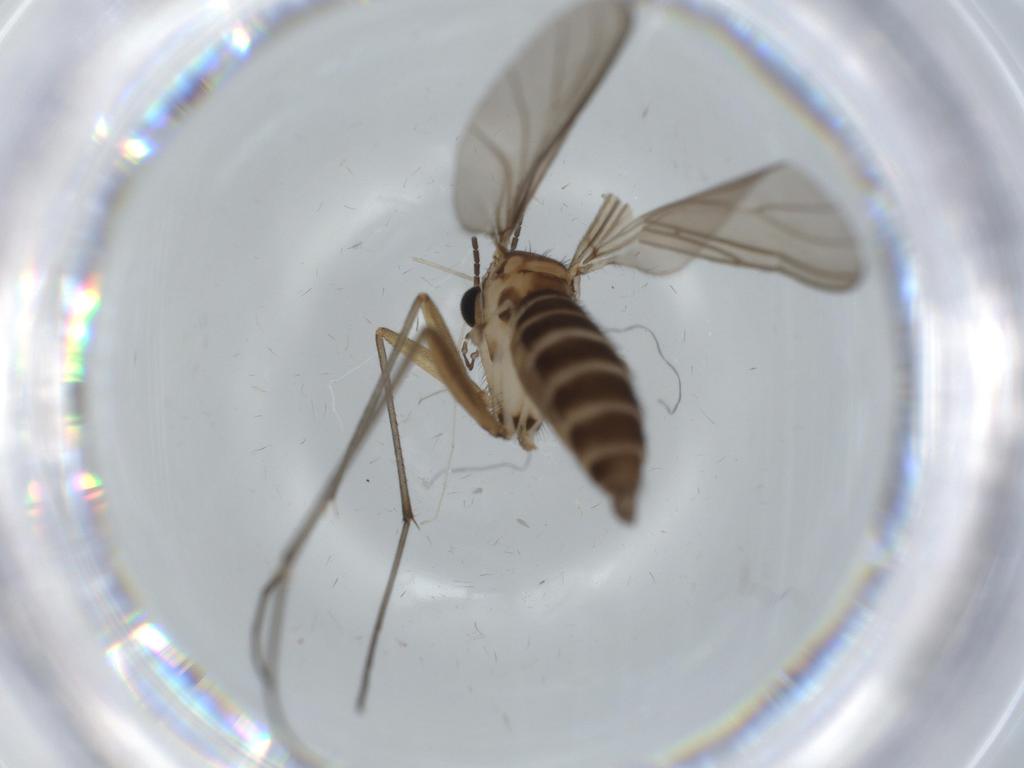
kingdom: Animalia
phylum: Arthropoda
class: Insecta
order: Diptera
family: Sciaridae
